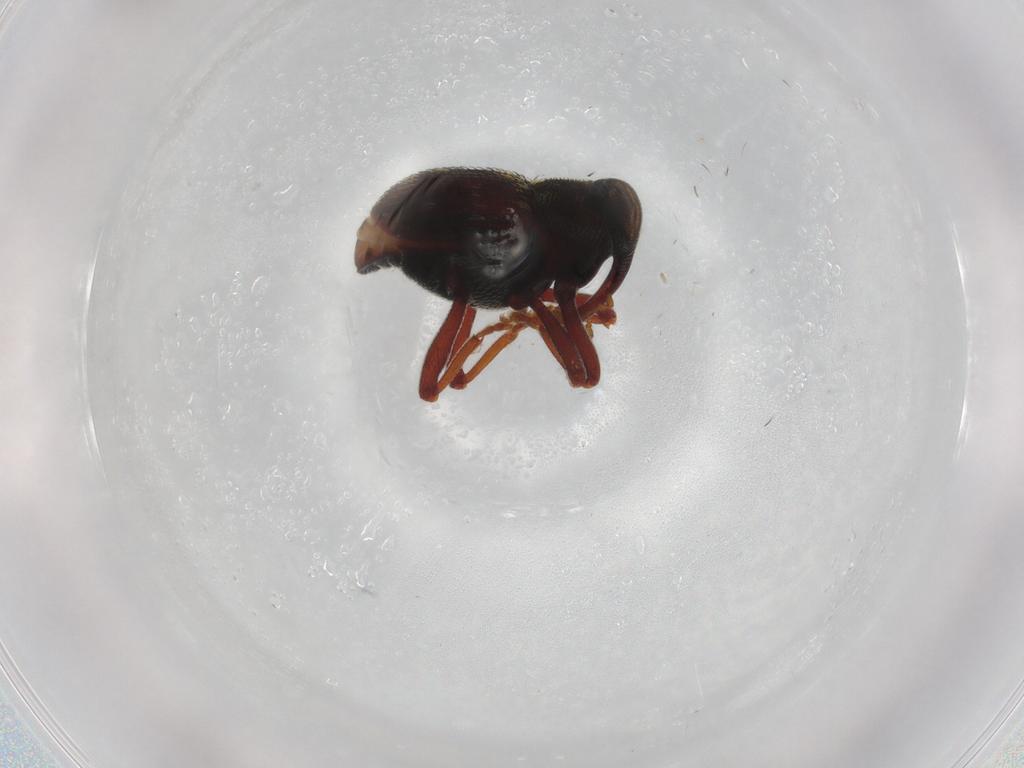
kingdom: Animalia
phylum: Arthropoda
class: Insecta
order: Coleoptera
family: Curculionidae
